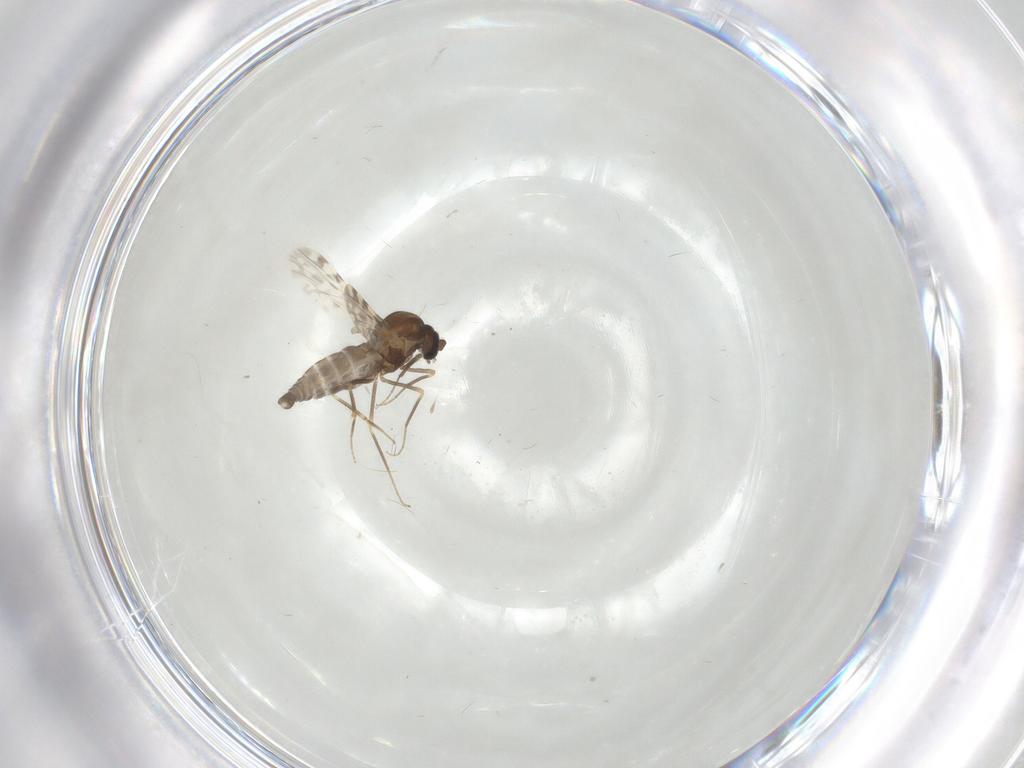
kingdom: Animalia
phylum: Arthropoda
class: Insecta
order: Diptera
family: Ceratopogonidae
